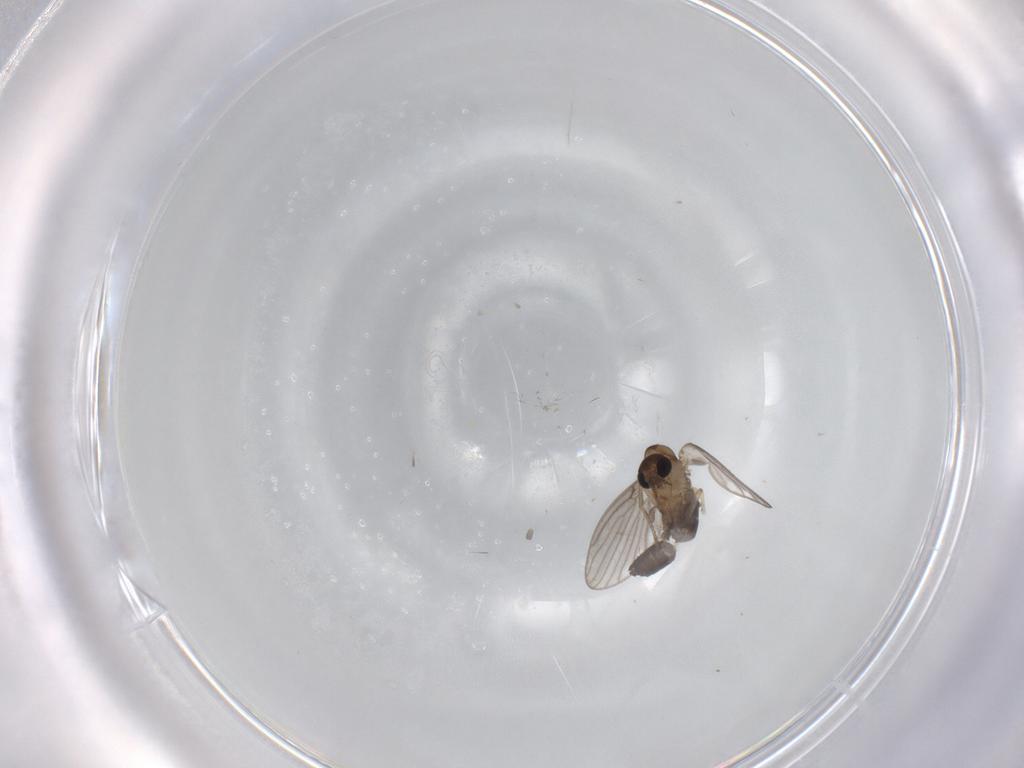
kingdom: Animalia
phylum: Arthropoda
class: Insecta
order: Diptera
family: Psychodidae
